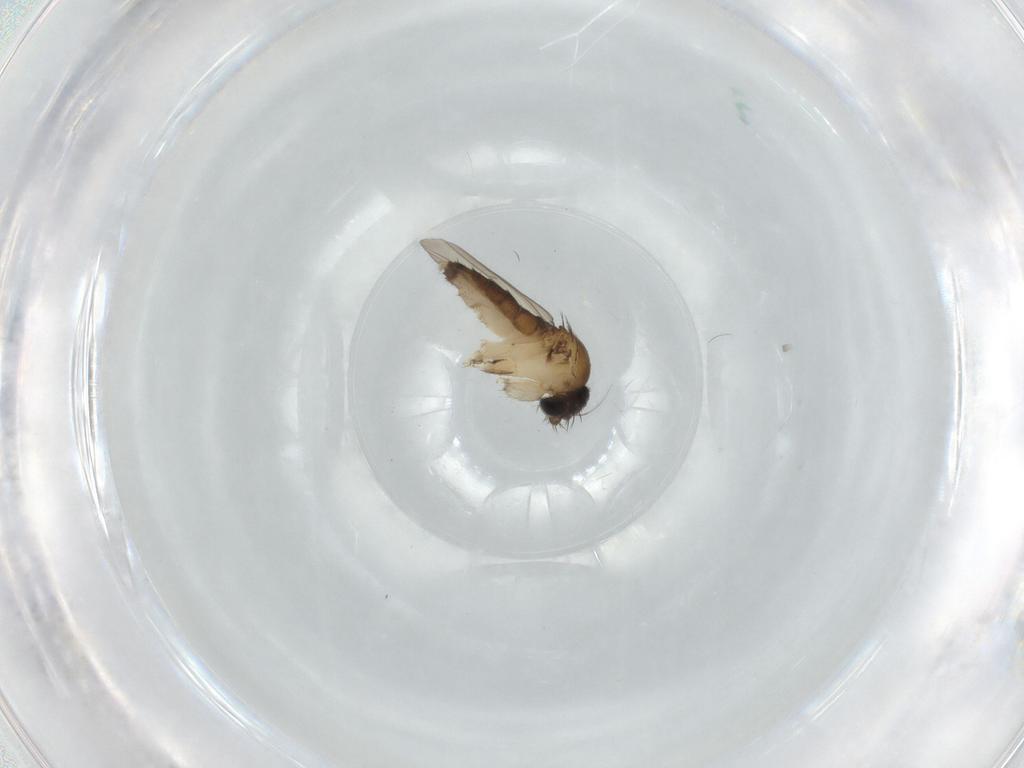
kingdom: Animalia
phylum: Arthropoda
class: Insecta
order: Diptera
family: Phoridae
